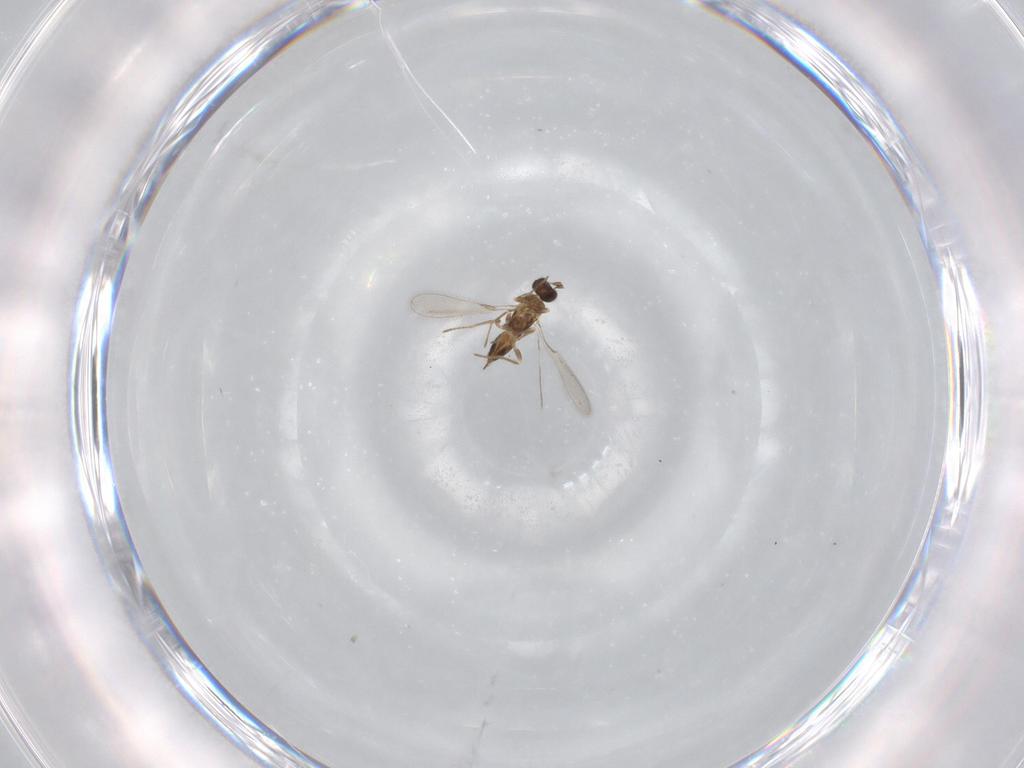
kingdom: Animalia
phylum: Arthropoda
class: Insecta
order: Hymenoptera
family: Mymaridae
